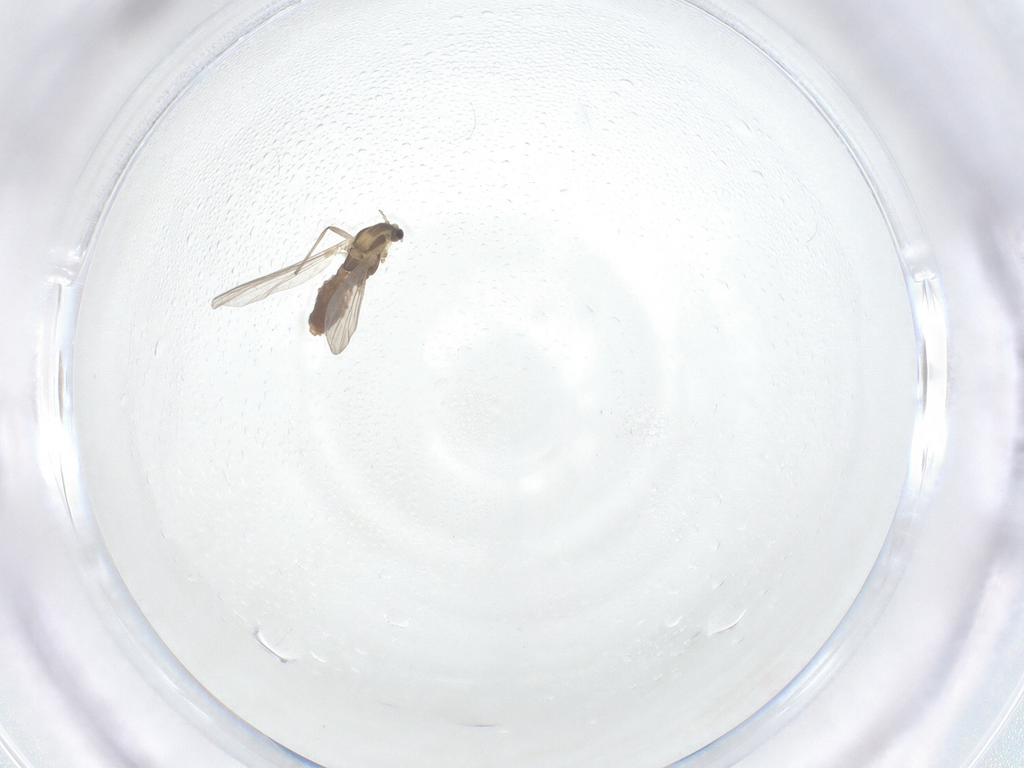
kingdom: Animalia
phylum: Arthropoda
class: Insecta
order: Diptera
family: Chironomidae
